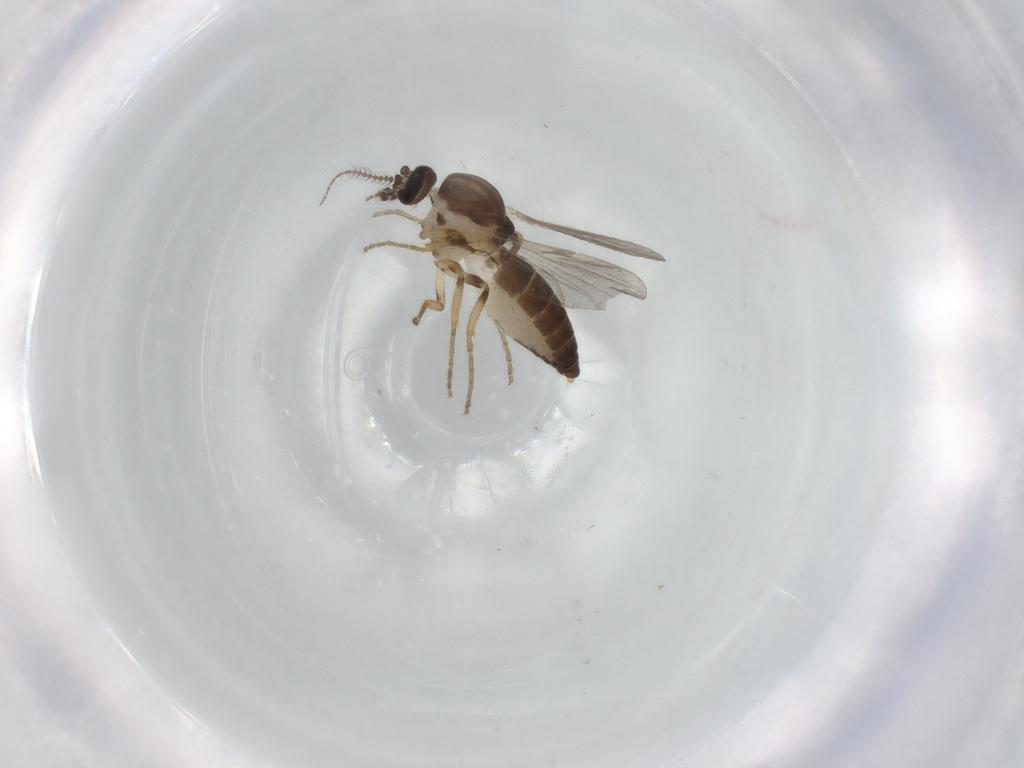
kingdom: Animalia
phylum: Arthropoda
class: Insecta
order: Diptera
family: Ceratopogonidae
